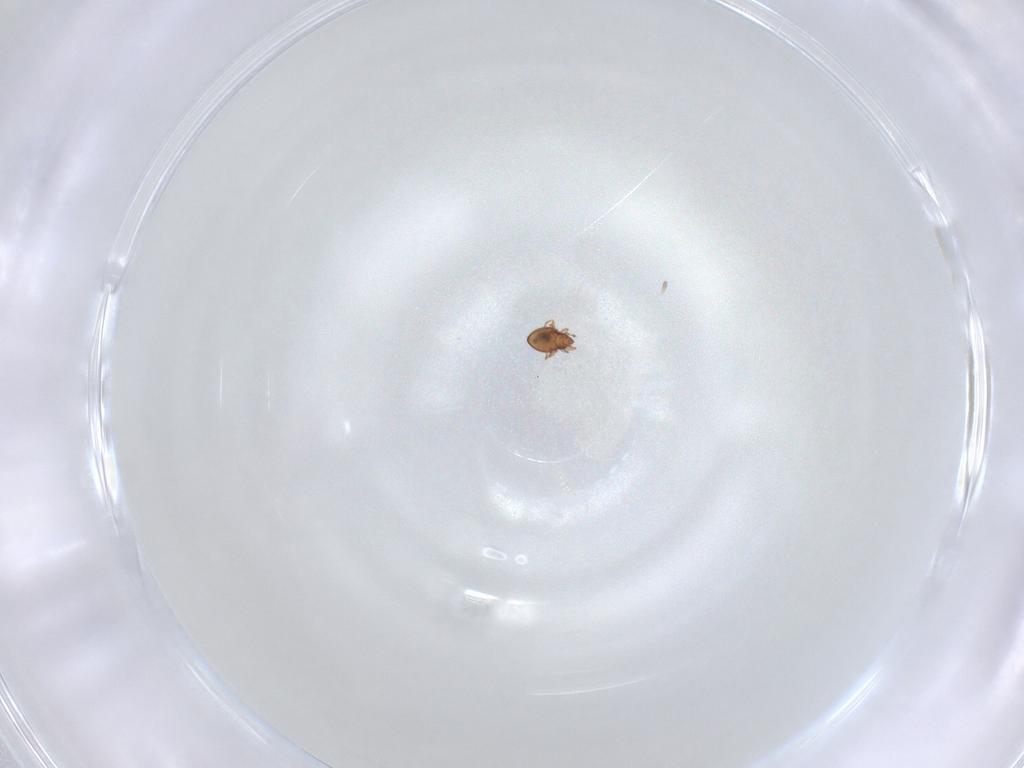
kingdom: Animalia
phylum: Arthropoda
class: Arachnida
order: Sarcoptiformes
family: Oribatulidae
